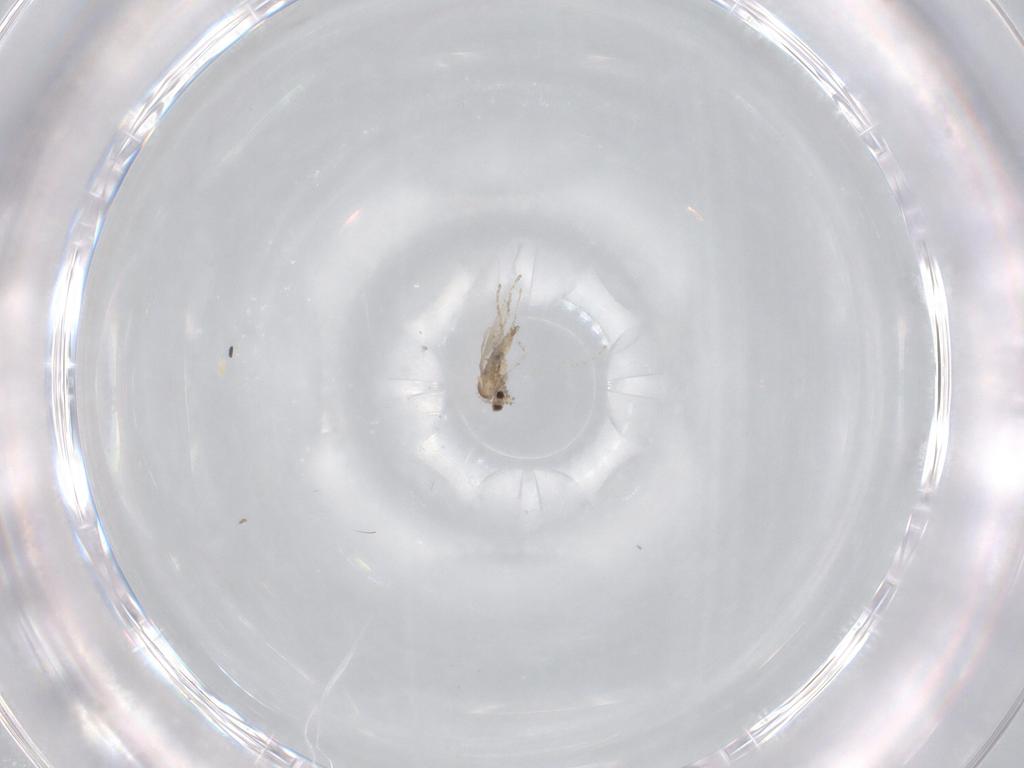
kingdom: Animalia
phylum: Arthropoda
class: Insecta
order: Diptera
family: Cecidomyiidae
